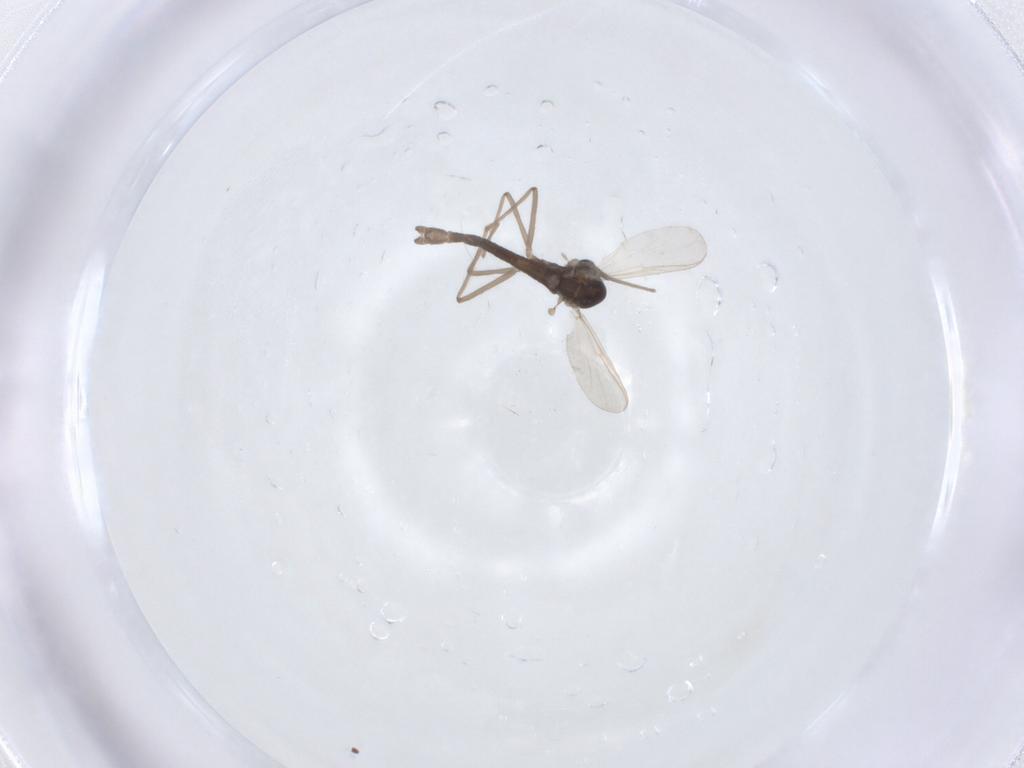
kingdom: Animalia
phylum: Arthropoda
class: Insecta
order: Diptera
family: Chironomidae
